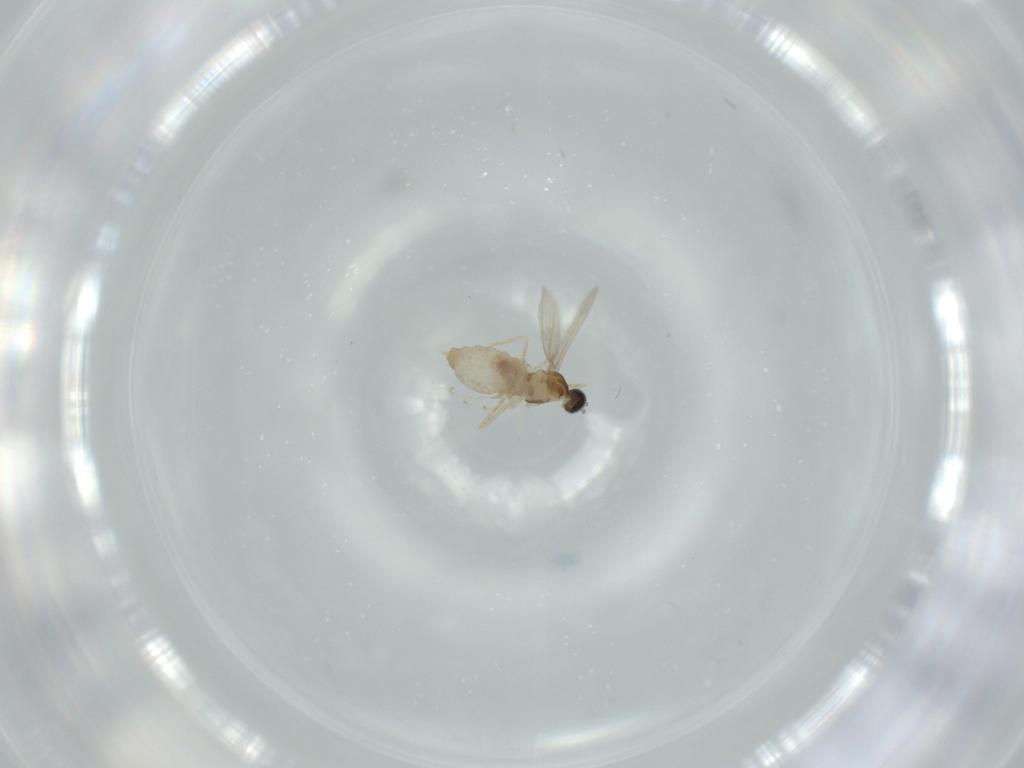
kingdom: Animalia
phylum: Arthropoda
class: Insecta
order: Diptera
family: Cecidomyiidae
